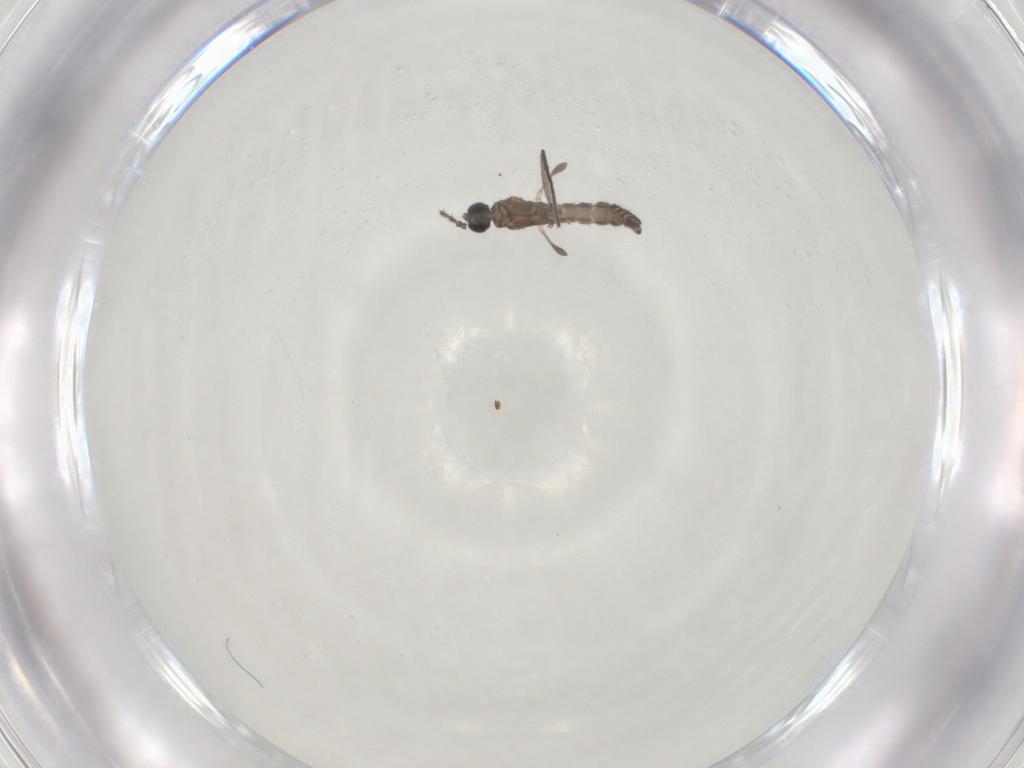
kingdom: Animalia
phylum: Arthropoda
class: Insecta
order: Diptera
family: Sciaridae
